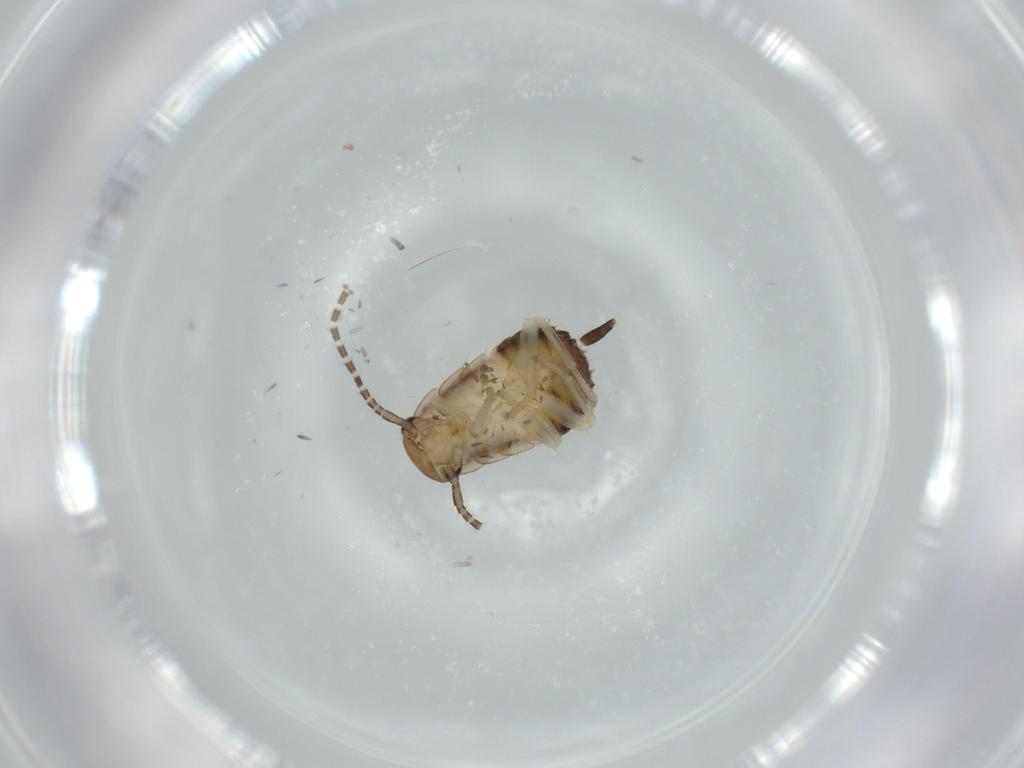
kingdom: Animalia
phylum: Arthropoda
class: Insecta
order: Blattodea
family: Ectobiidae
